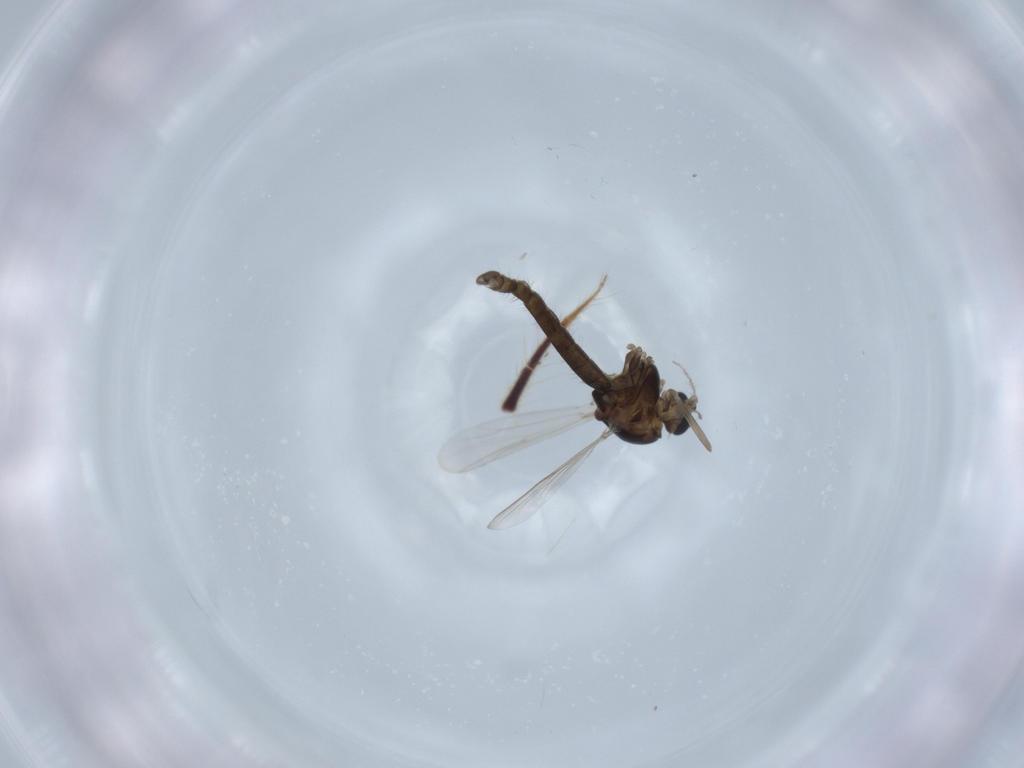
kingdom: Animalia
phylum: Arthropoda
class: Insecta
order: Diptera
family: Chironomidae
